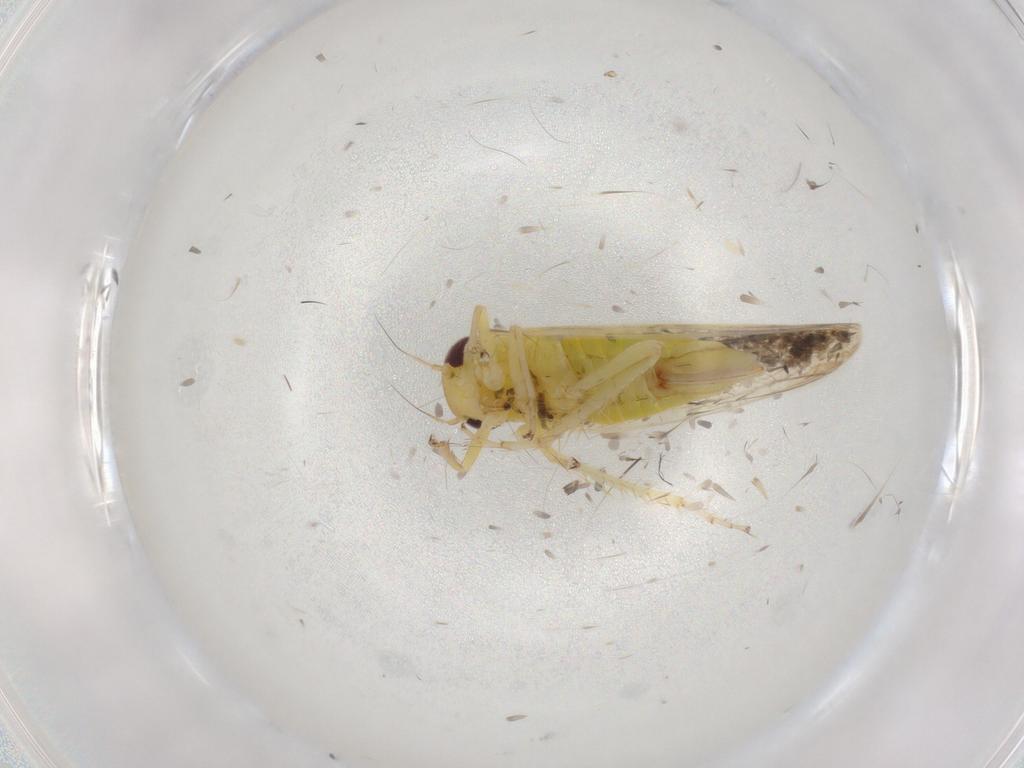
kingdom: Animalia
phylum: Arthropoda
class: Insecta
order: Hemiptera
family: Cicadellidae
